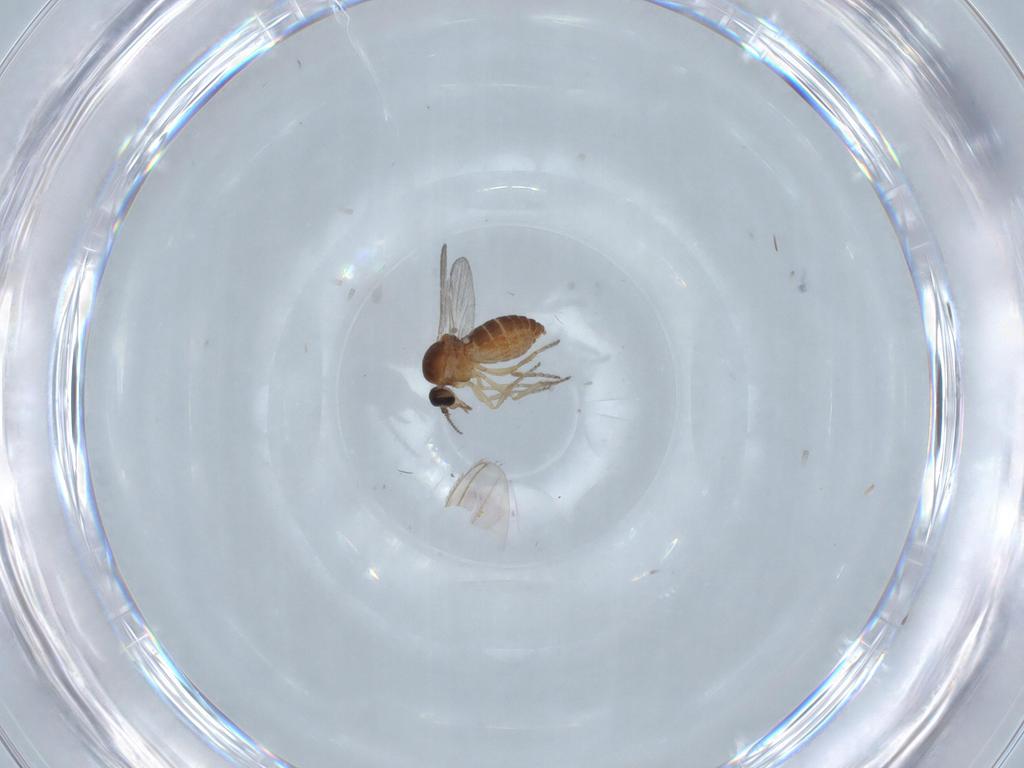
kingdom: Animalia
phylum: Arthropoda
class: Insecta
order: Diptera
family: Ceratopogonidae
